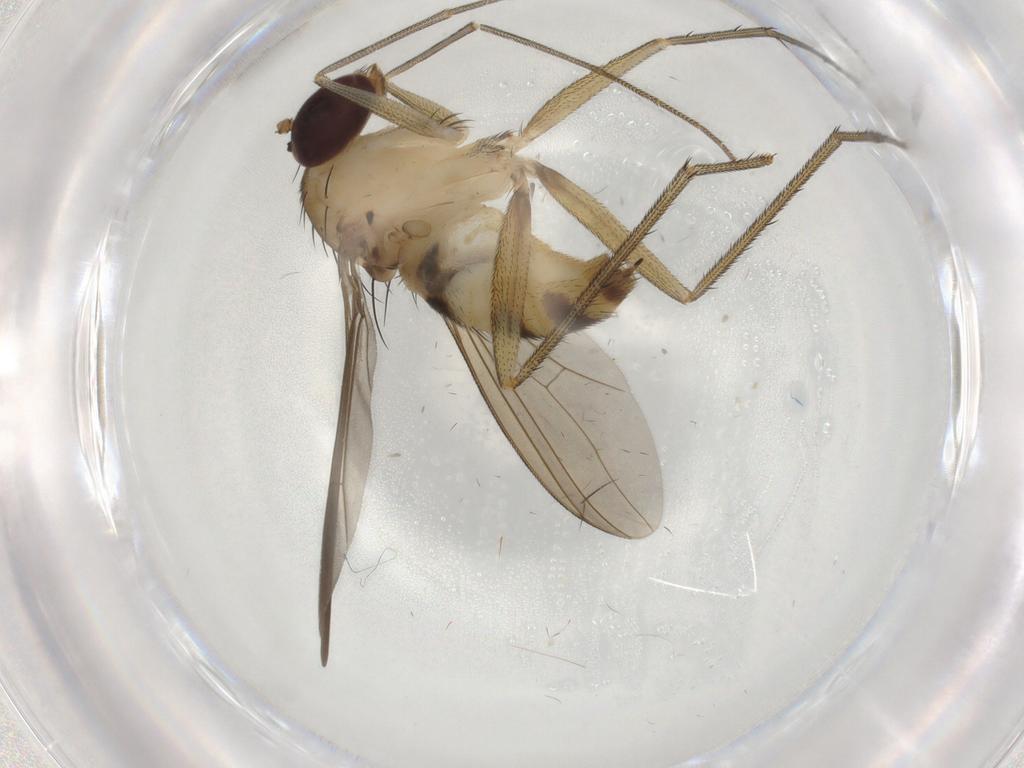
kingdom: Animalia
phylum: Arthropoda
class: Insecta
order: Diptera
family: Dolichopodidae
